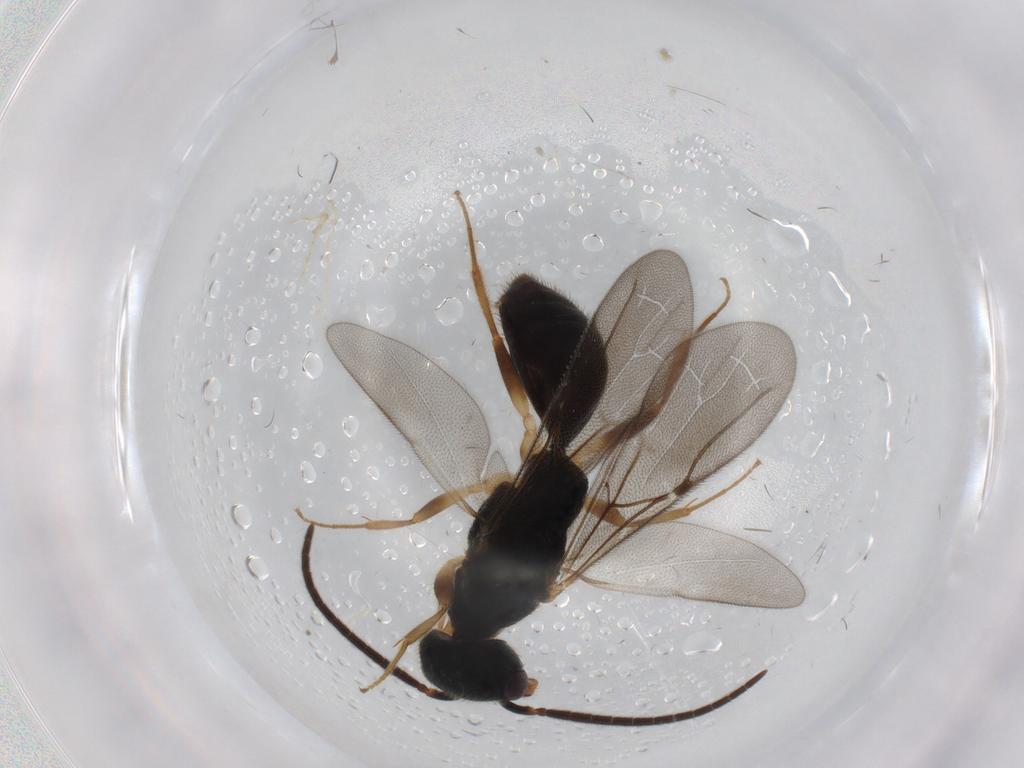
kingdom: Animalia
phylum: Arthropoda
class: Insecta
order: Hymenoptera
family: Bethylidae
